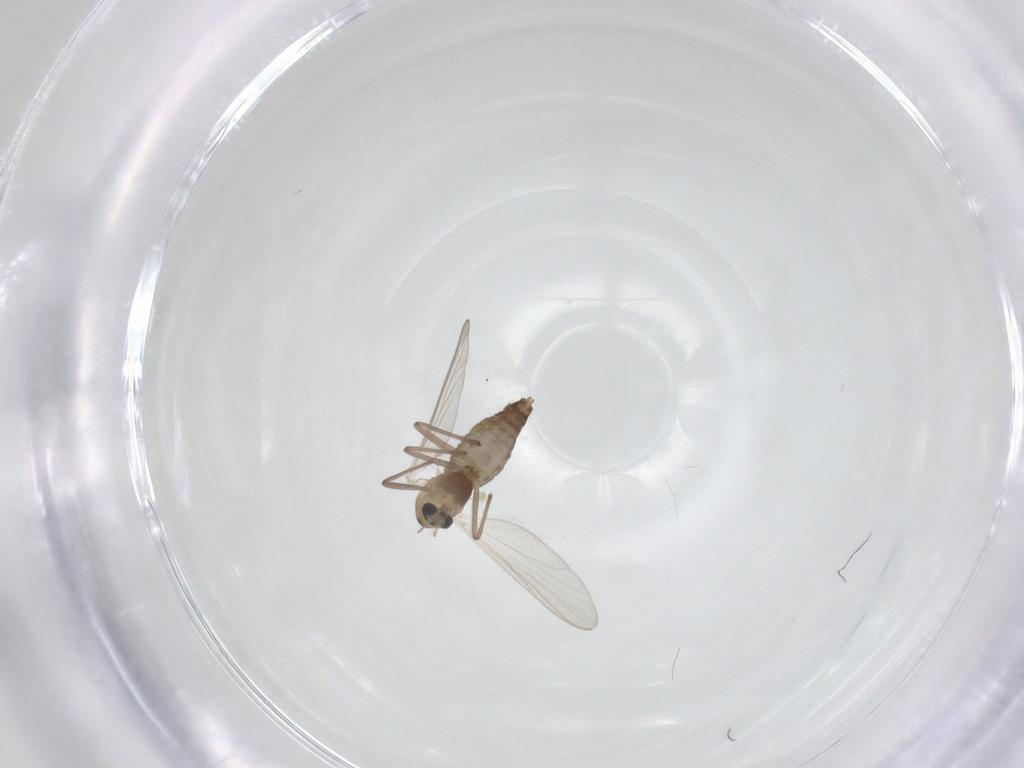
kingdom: Animalia
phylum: Arthropoda
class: Insecta
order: Diptera
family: Chironomidae
